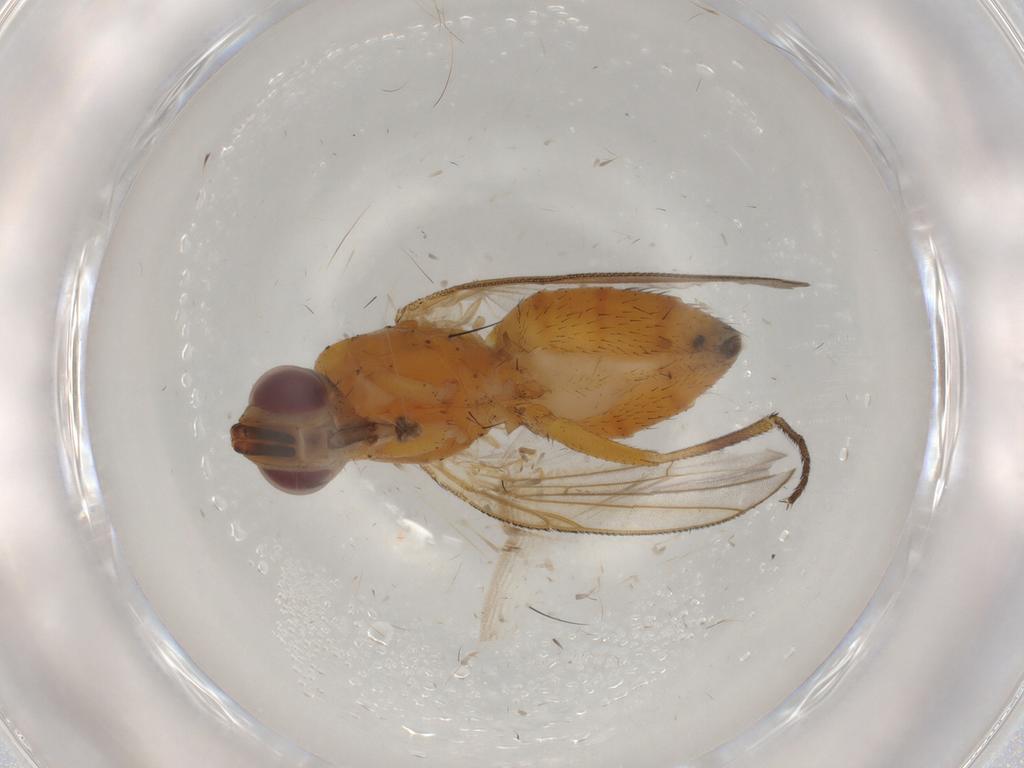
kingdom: Animalia
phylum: Arthropoda
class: Insecta
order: Diptera
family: Muscidae
